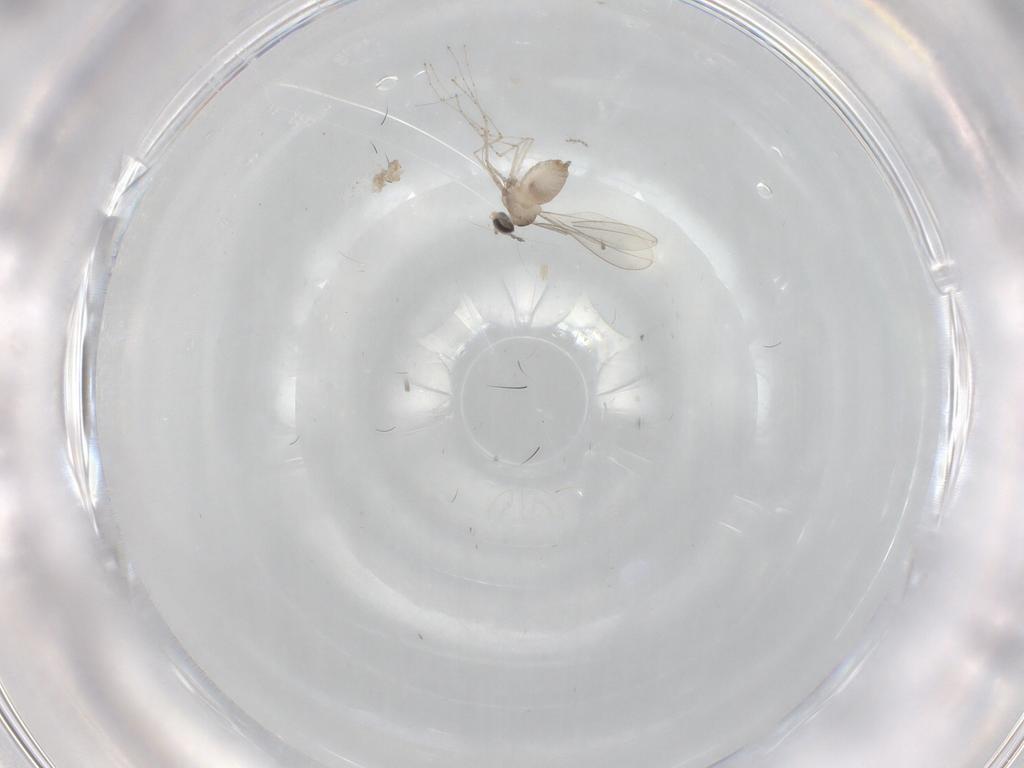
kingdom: Animalia
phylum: Arthropoda
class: Insecta
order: Diptera
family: Cecidomyiidae
